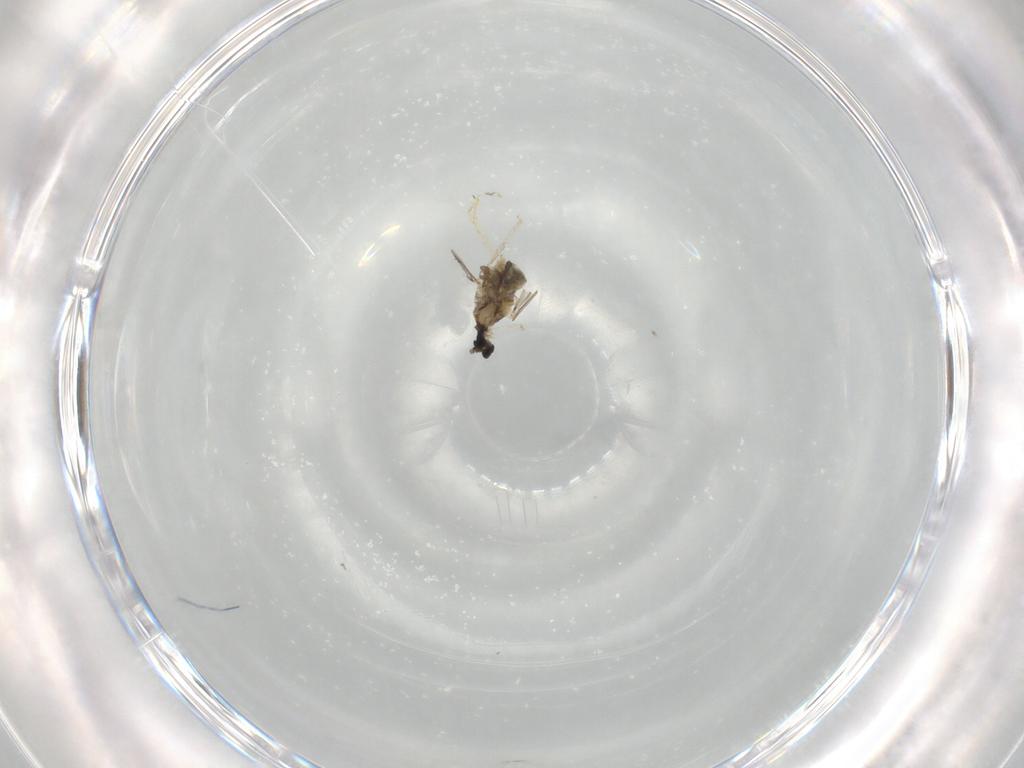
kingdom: Animalia
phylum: Arthropoda
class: Insecta
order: Diptera
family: Cecidomyiidae
